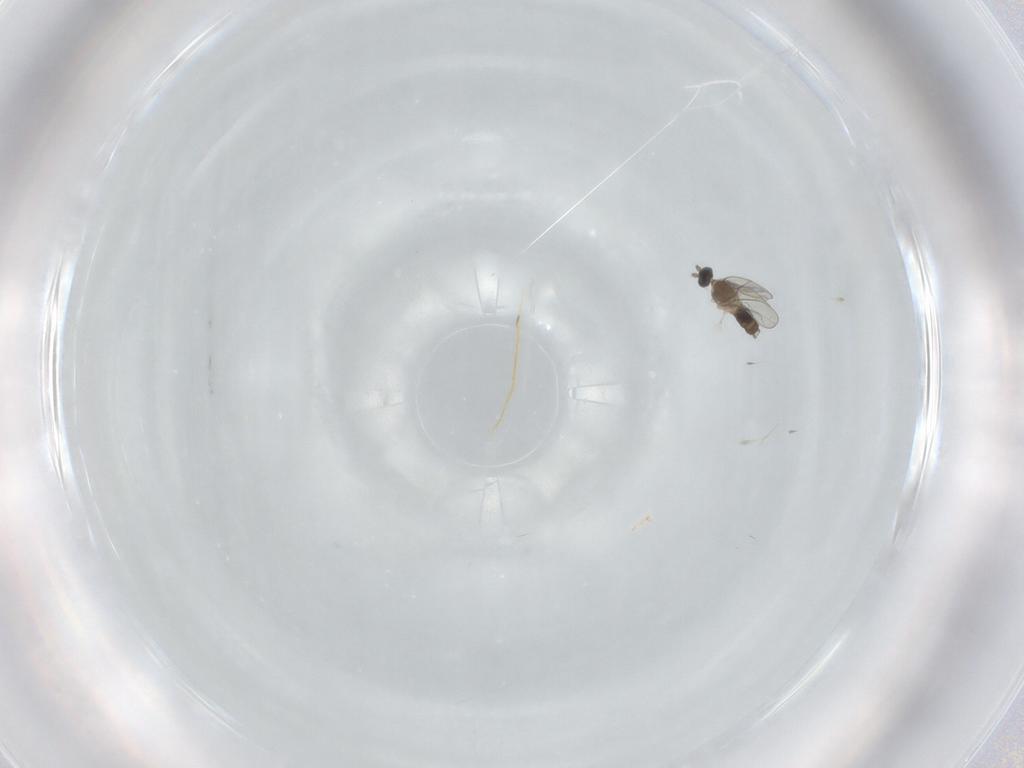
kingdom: Animalia
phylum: Arthropoda
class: Insecta
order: Diptera
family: Cecidomyiidae
